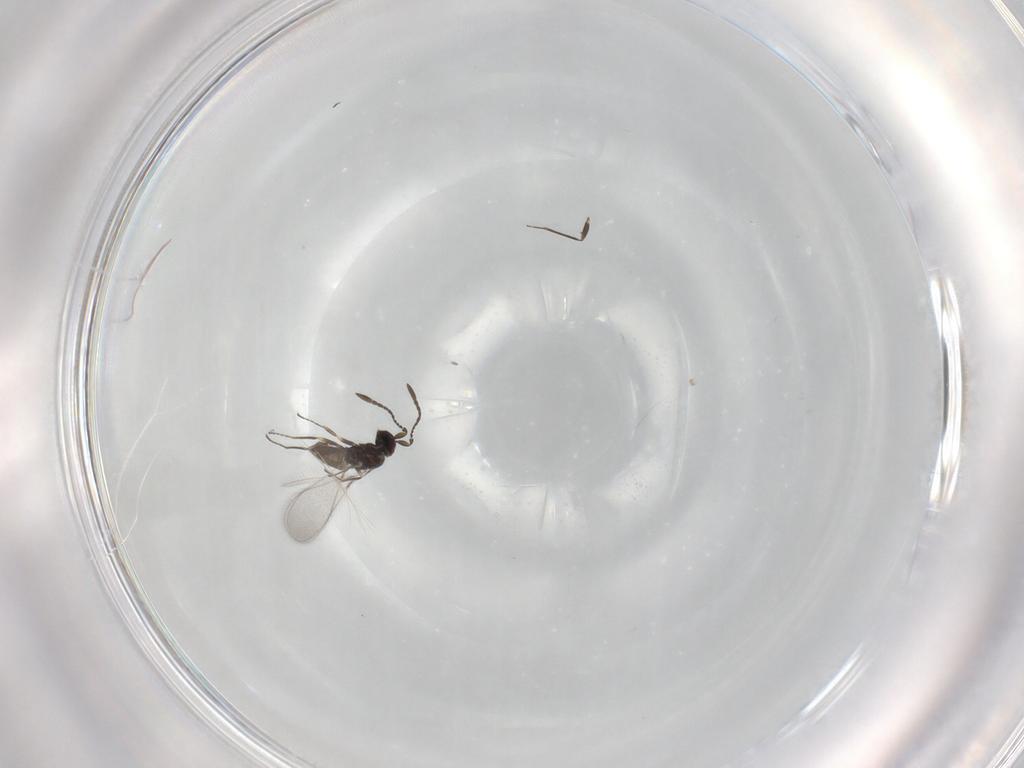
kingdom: Animalia
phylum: Arthropoda
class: Insecta
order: Hymenoptera
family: Mymaridae
